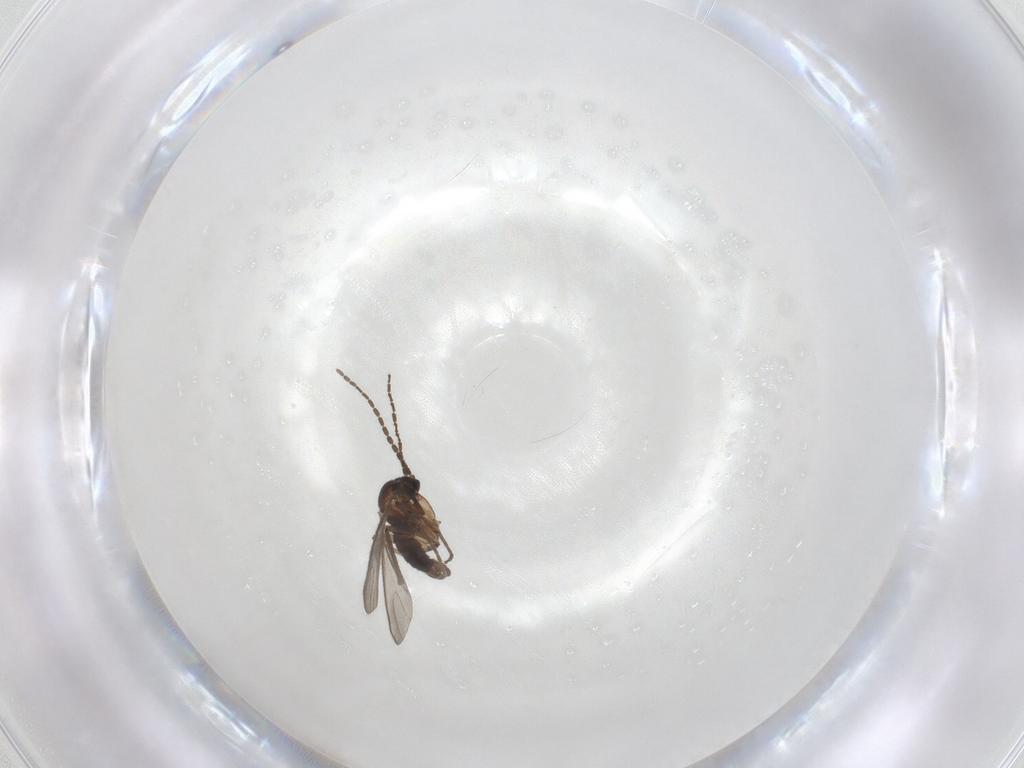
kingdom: Animalia
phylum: Arthropoda
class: Insecta
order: Diptera
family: Sciaridae
